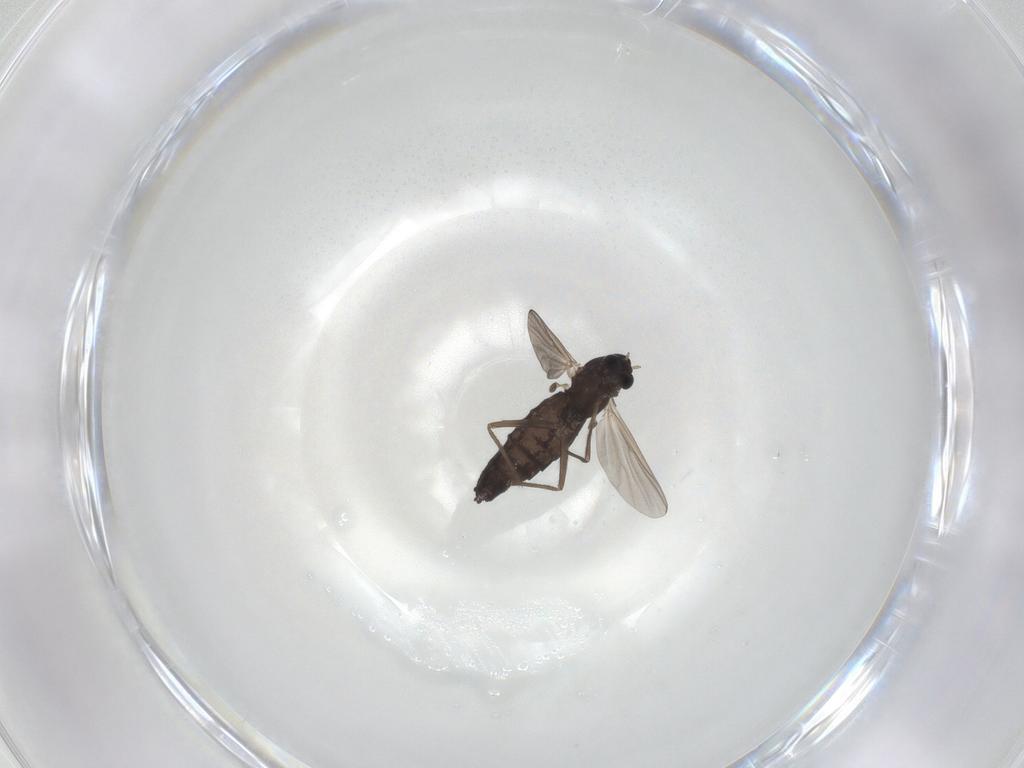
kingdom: Animalia
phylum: Arthropoda
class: Insecta
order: Diptera
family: Chironomidae
